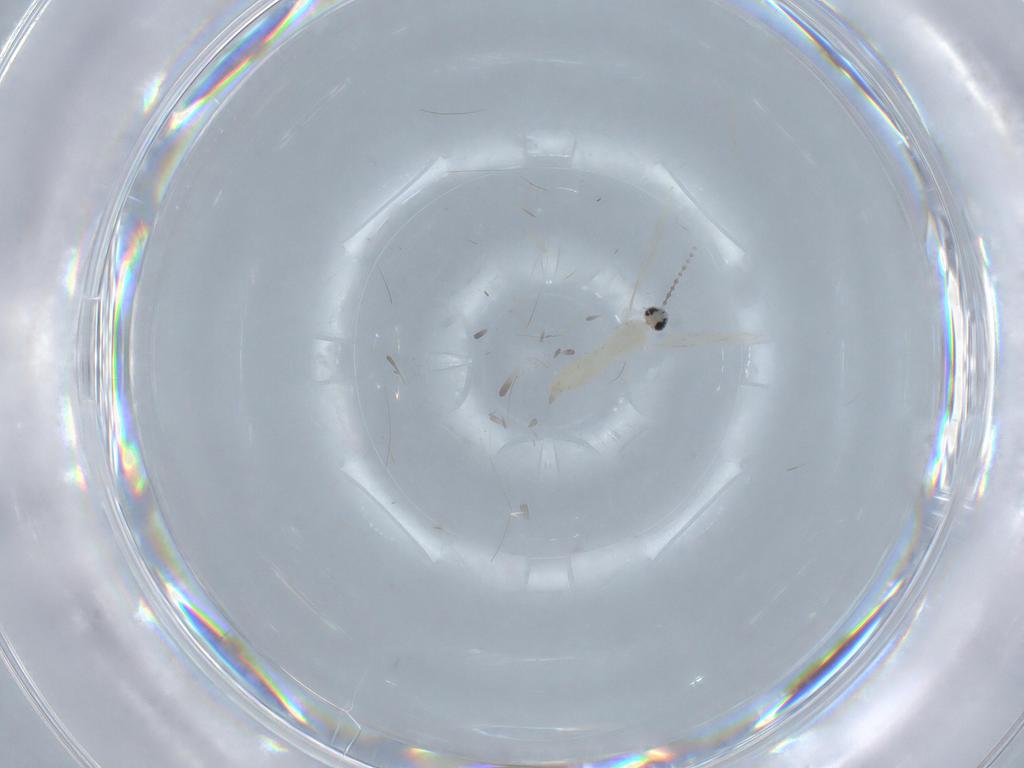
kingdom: Animalia
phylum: Arthropoda
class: Insecta
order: Diptera
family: Cecidomyiidae
